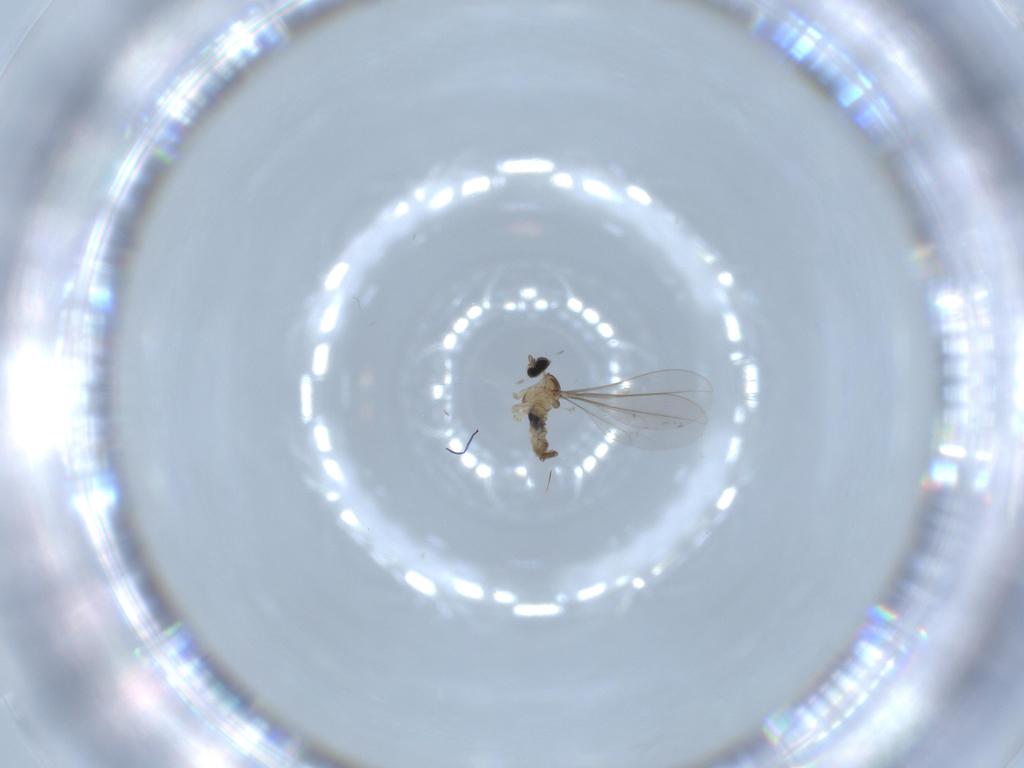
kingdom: Animalia
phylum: Arthropoda
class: Insecta
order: Diptera
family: Cecidomyiidae
